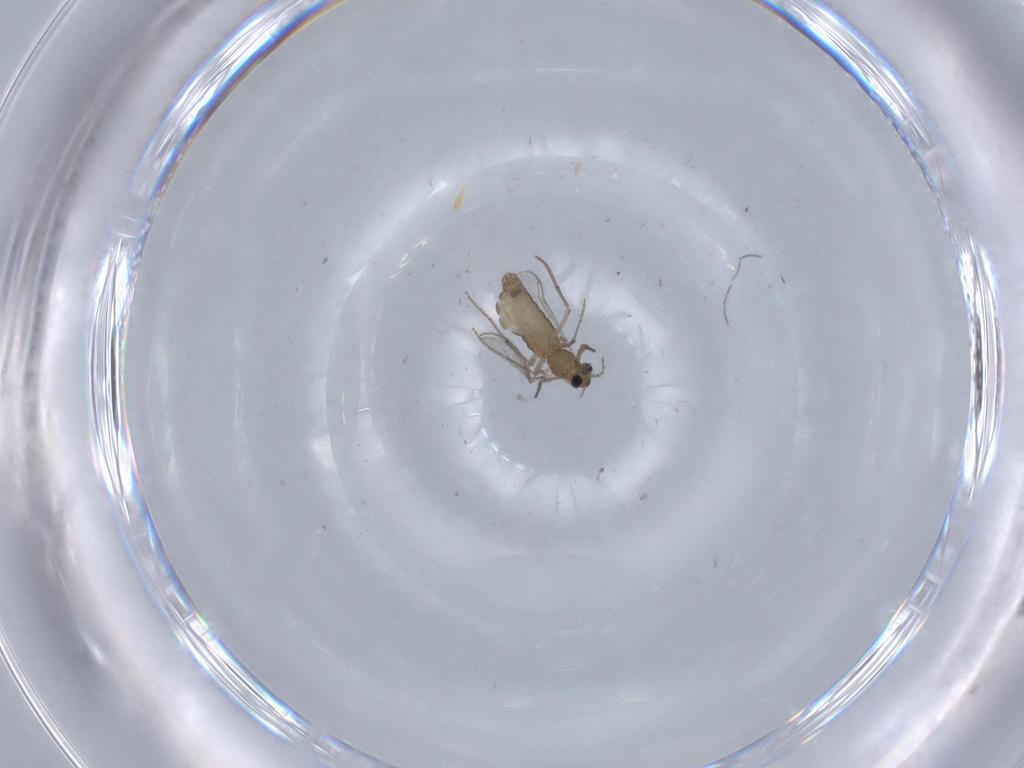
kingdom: Animalia
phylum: Arthropoda
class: Insecta
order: Diptera
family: Chironomidae
